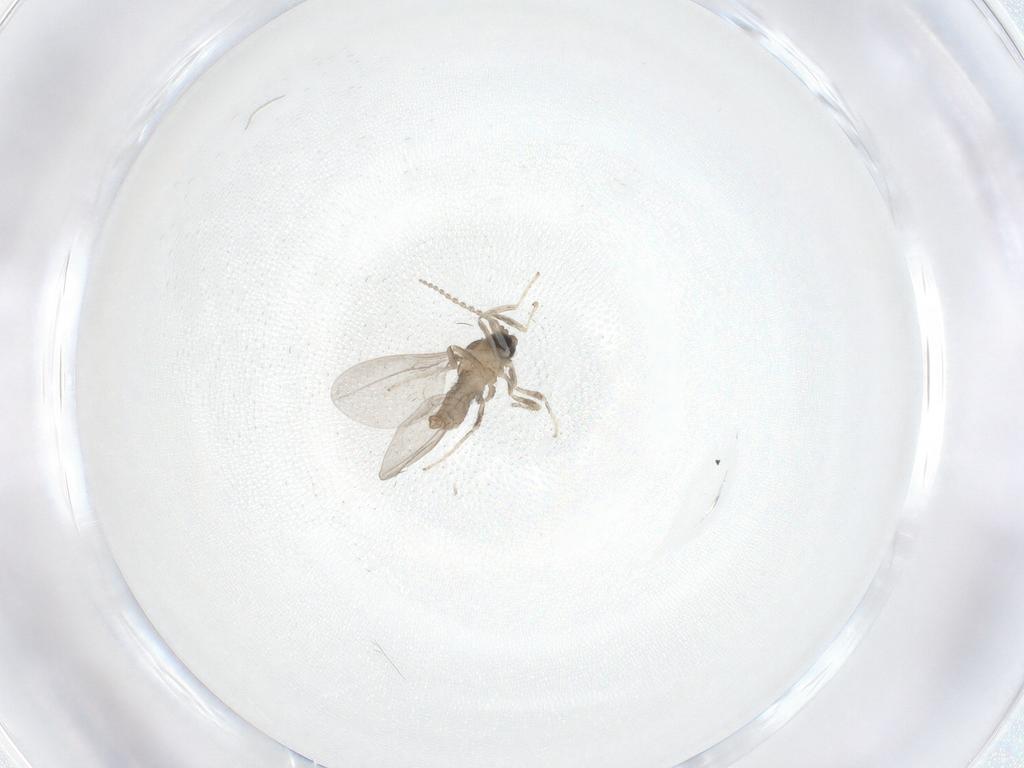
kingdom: Animalia
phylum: Arthropoda
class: Insecta
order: Diptera
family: Cecidomyiidae
